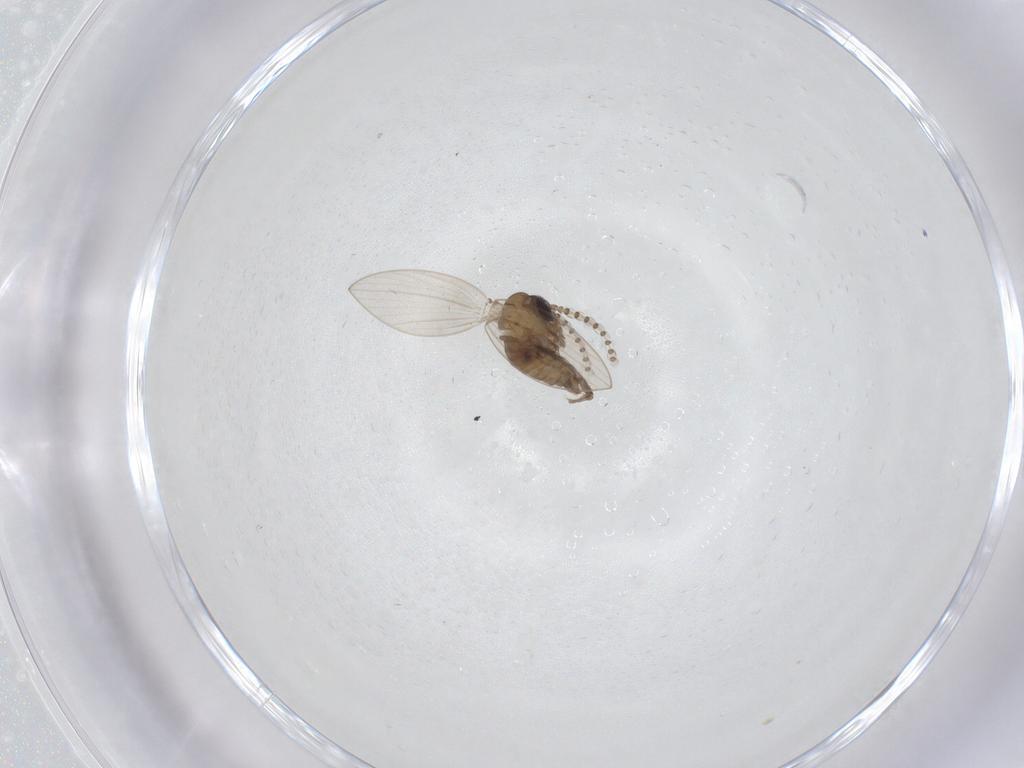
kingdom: Animalia
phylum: Arthropoda
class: Insecta
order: Diptera
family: Psychodidae
